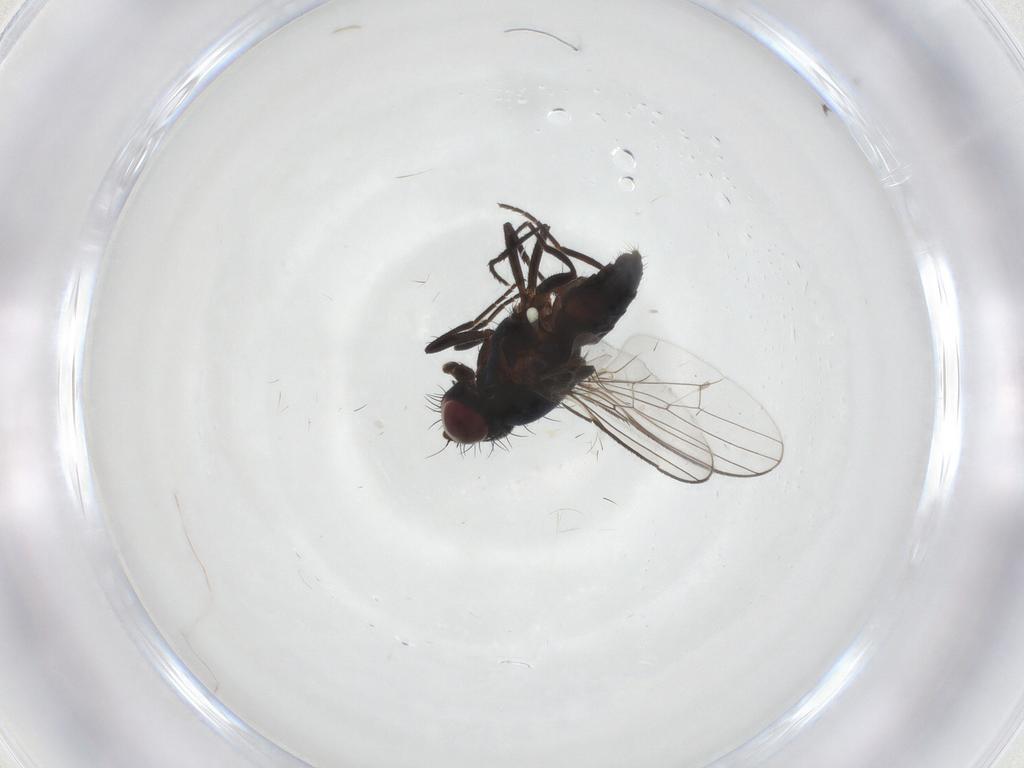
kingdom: Animalia
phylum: Arthropoda
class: Insecta
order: Diptera
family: Carnidae
